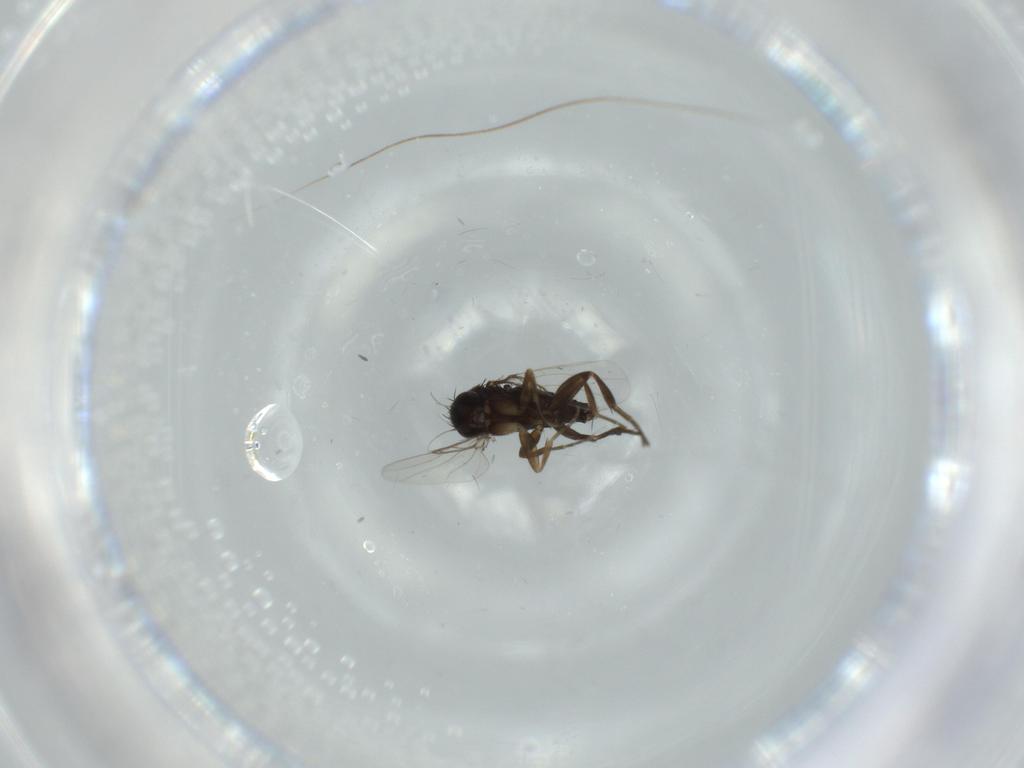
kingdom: Animalia
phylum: Arthropoda
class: Insecta
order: Diptera
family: Phoridae
